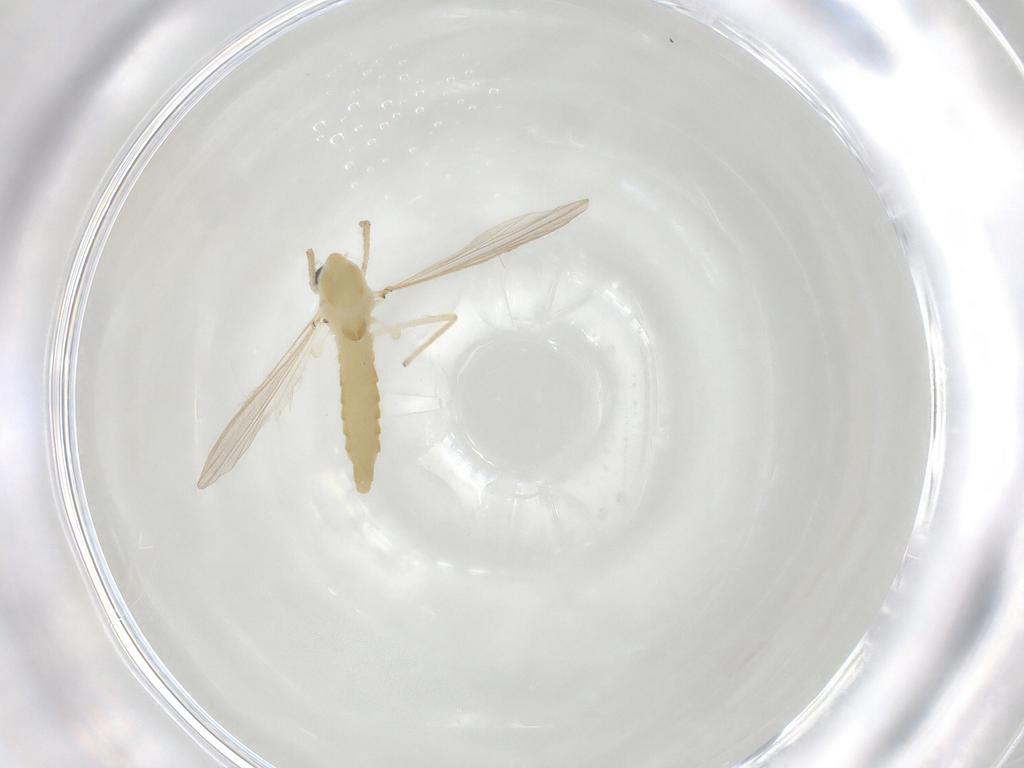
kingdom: Animalia
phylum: Arthropoda
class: Insecta
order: Diptera
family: Chironomidae
